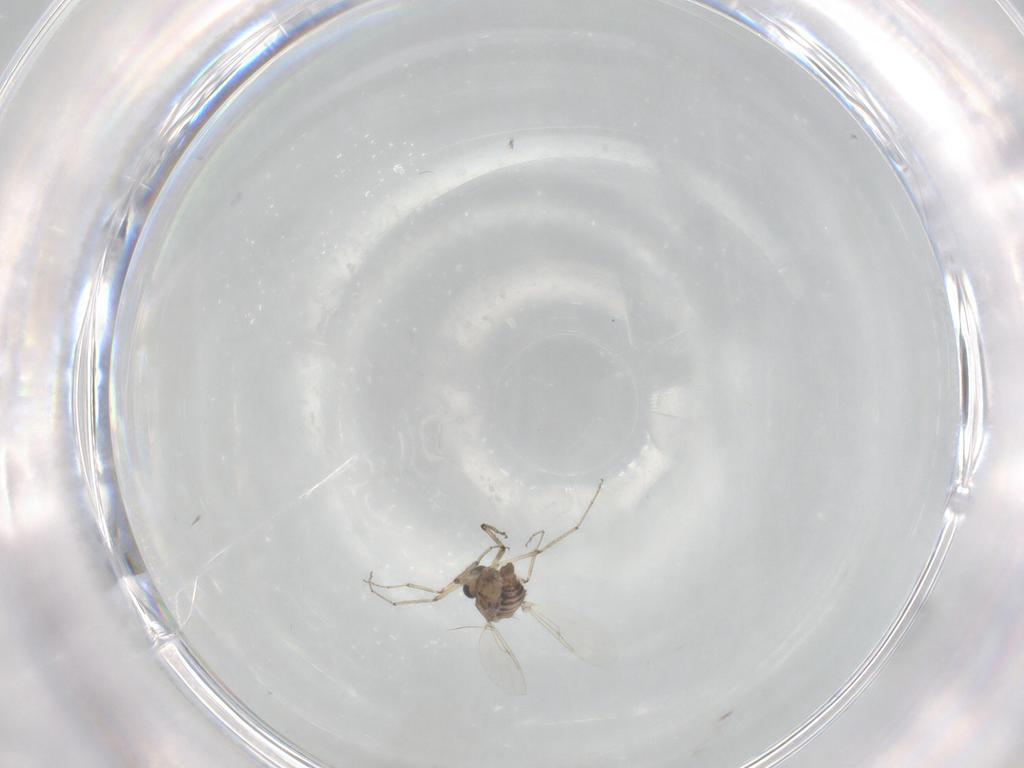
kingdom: Animalia
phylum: Arthropoda
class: Insecta
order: Diptera
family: Ceratopogonidae
